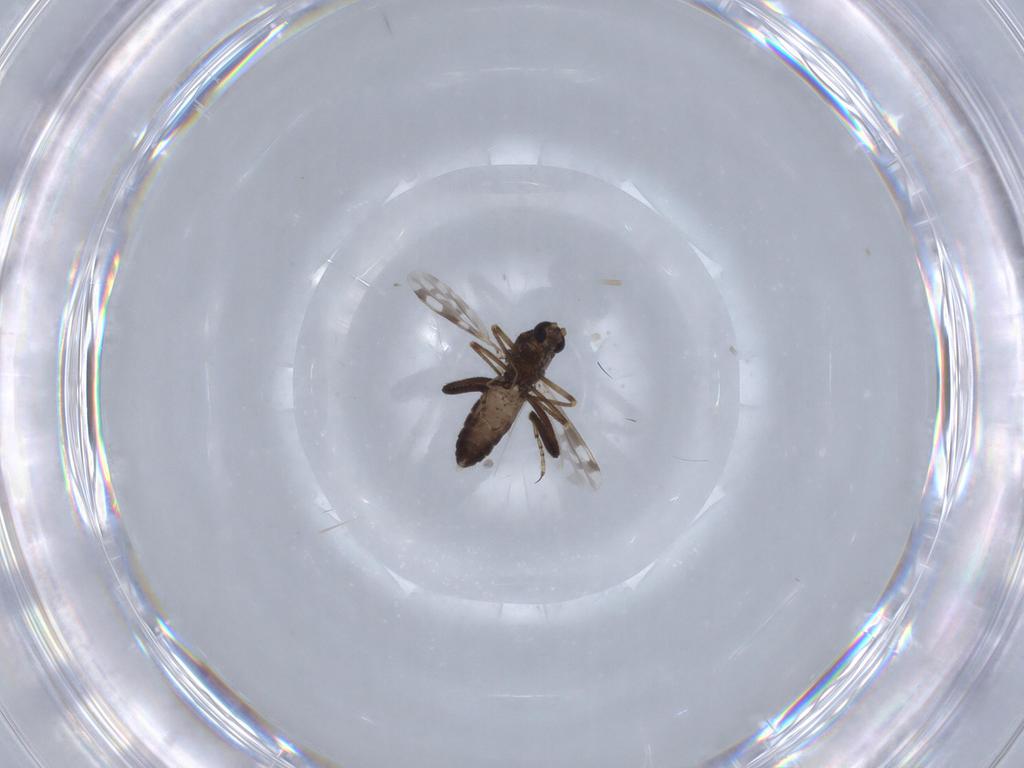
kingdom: Animalia
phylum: Arthropoda
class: Insecta
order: Diptera
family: Ceratopogonidae
